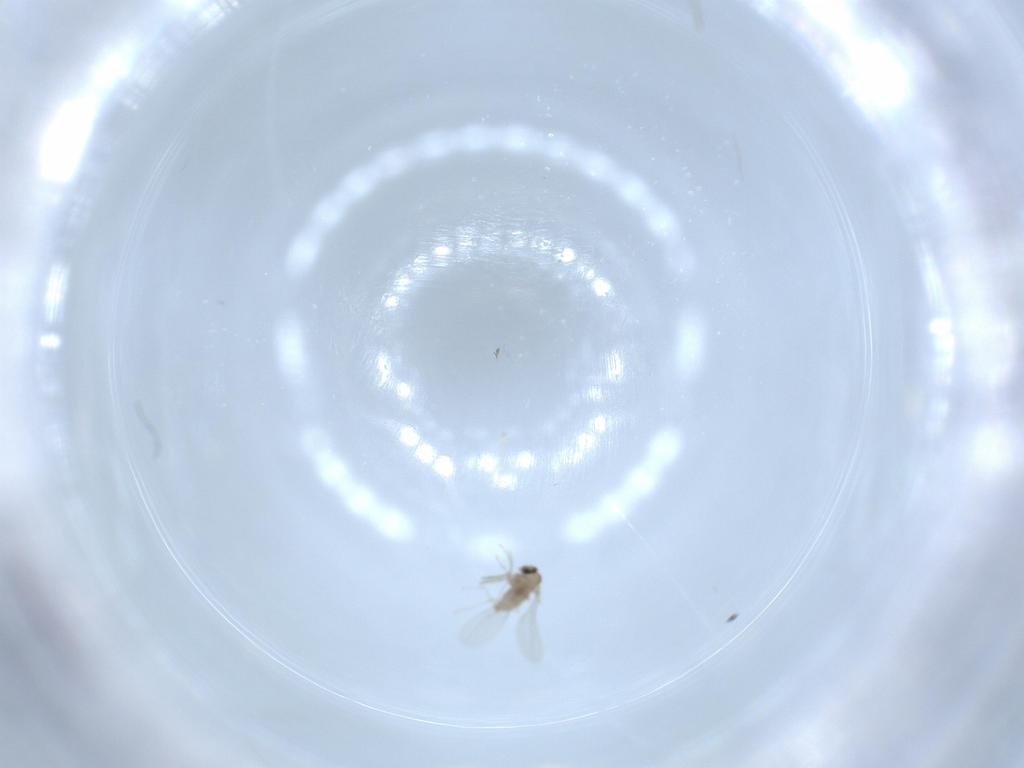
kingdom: Animalia
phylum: Arthropoda
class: Insecta
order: Diptera
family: Cecidomyiidae
